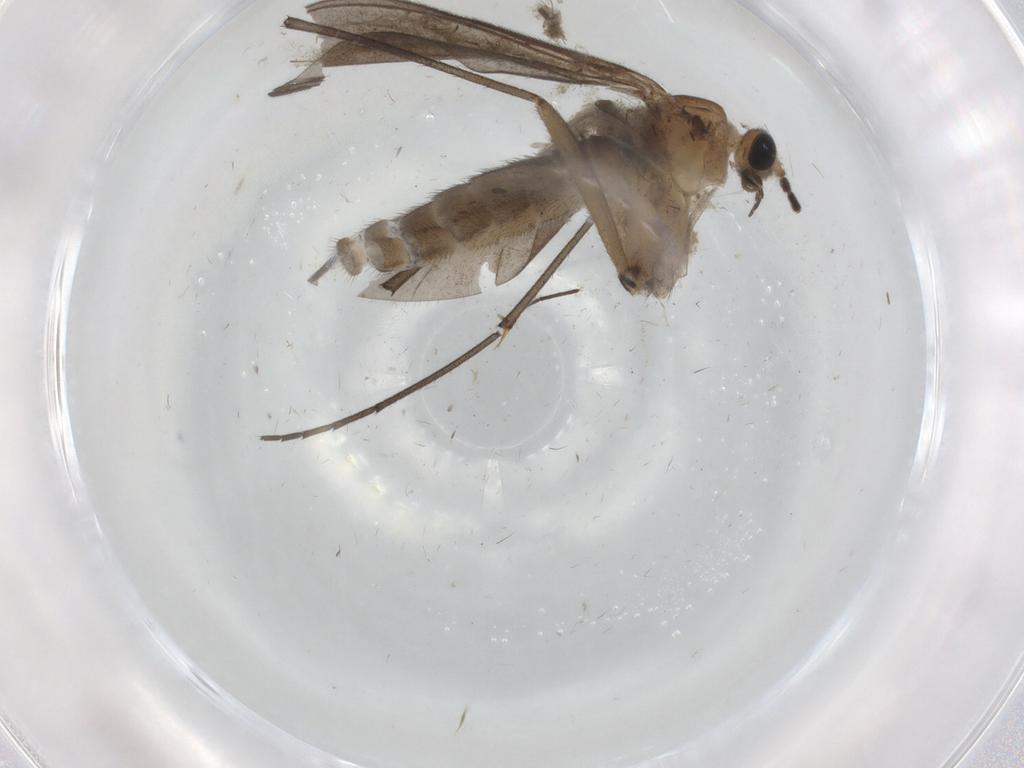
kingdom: Animalia
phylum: Arthropoda
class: Insecta
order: Diptera
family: Sciaridae
